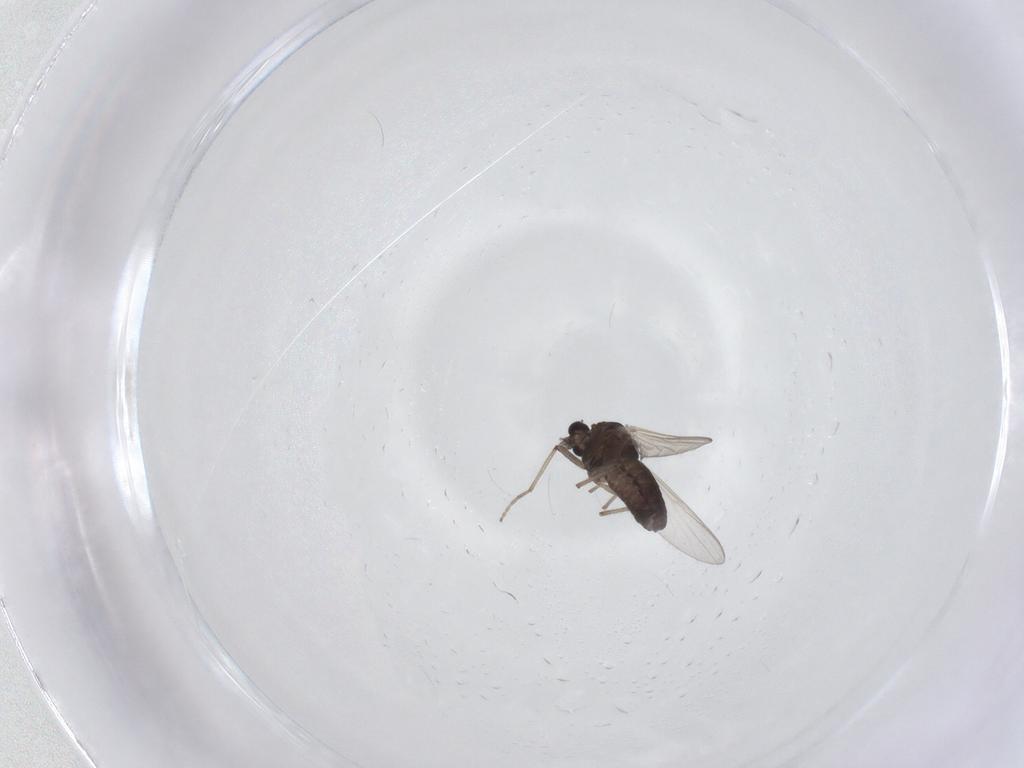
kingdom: Animalia
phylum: Arthropoda
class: Insecta
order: Diptera
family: Chironomidae
